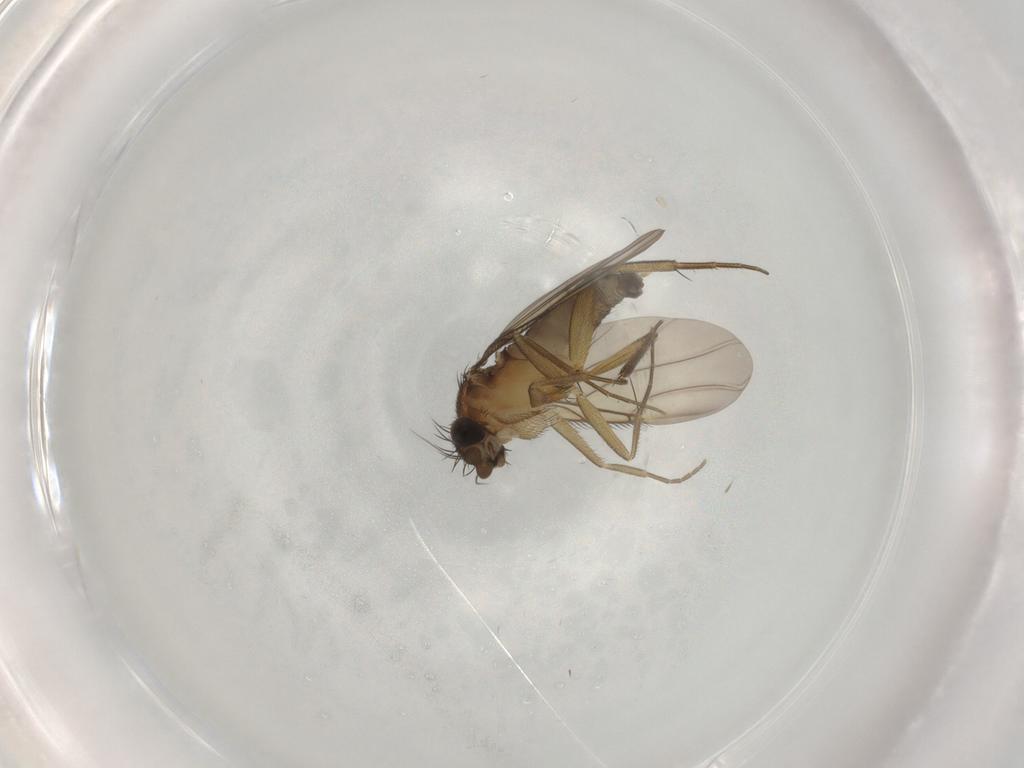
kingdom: Animalia
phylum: Arthropoda
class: Insecta
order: Diptera
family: Phoridae
